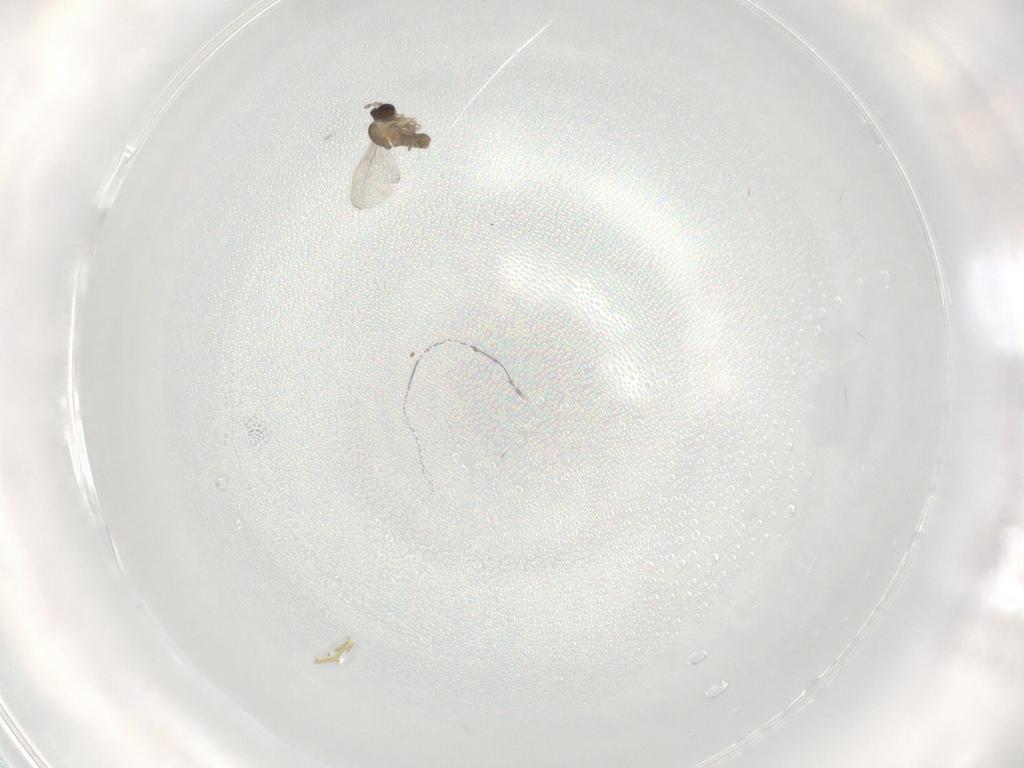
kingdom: Animalia
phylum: Arthropoda
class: Insecta
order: Diptera
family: Cecidomyiidae
